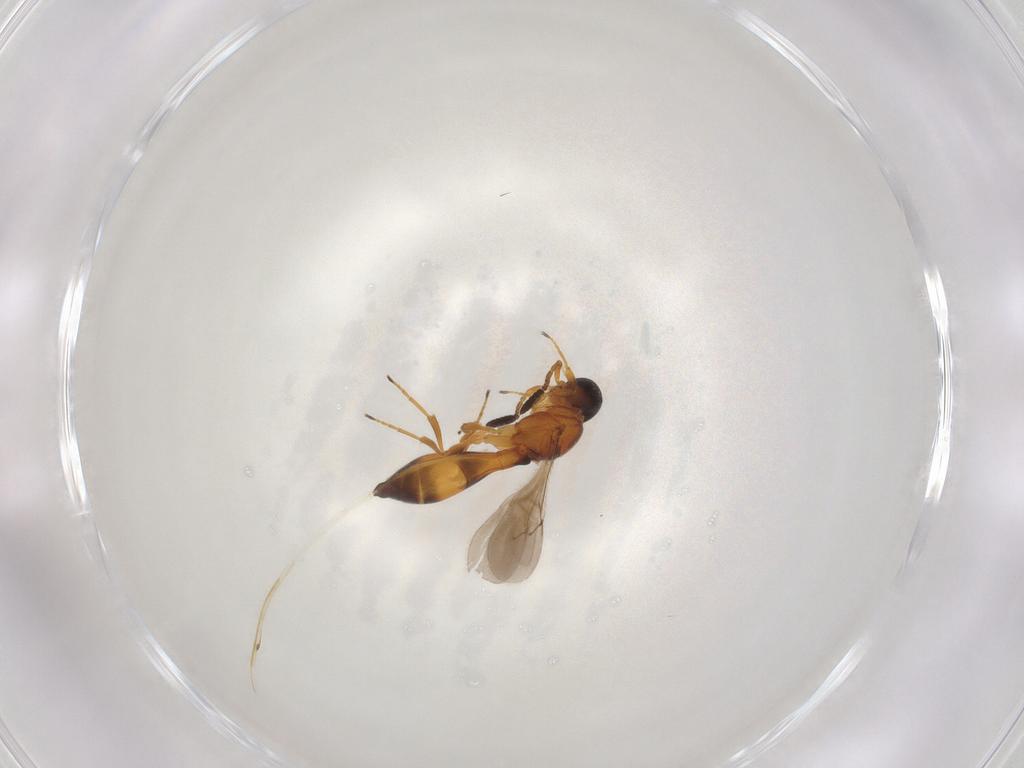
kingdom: Animalia
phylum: Arthropoda
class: Insecta
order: Hymenoptera
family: Scelionidae
